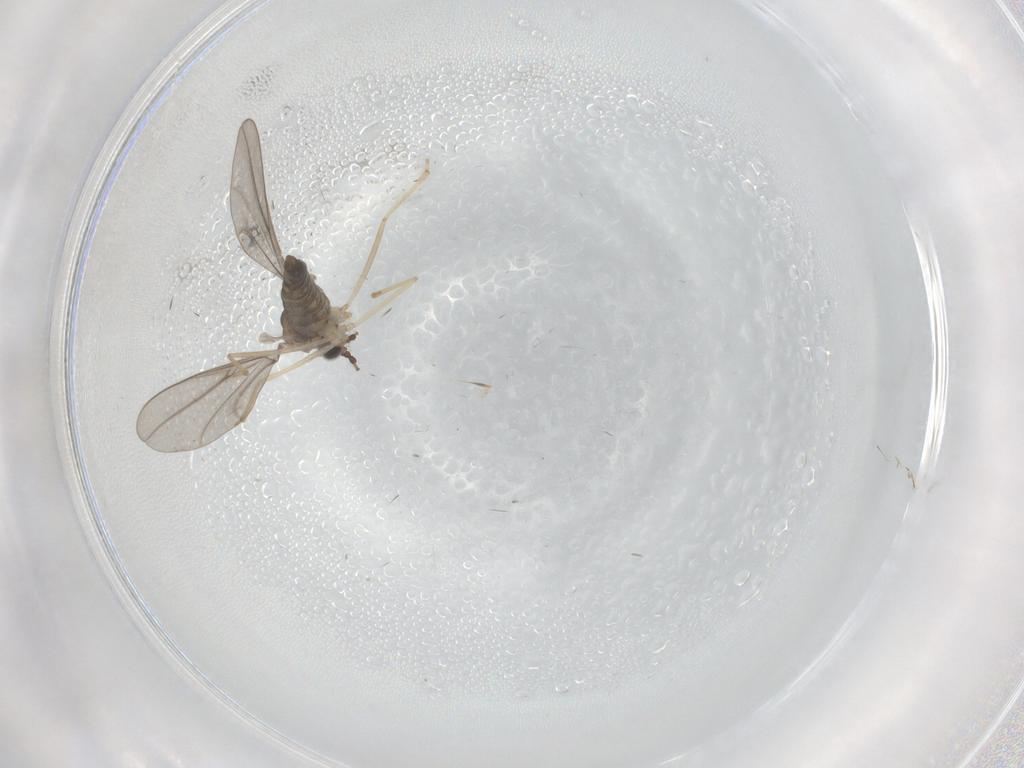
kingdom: Animalia
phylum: Arthropoda
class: Insecta
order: Diptera
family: Cecidomyiidae
